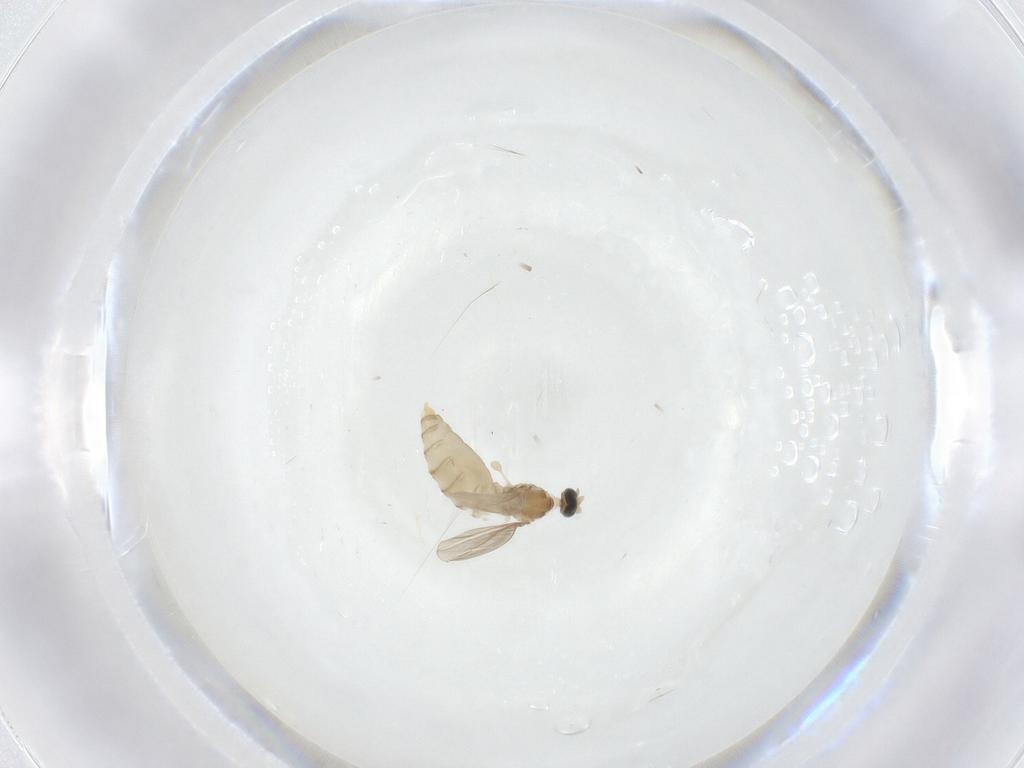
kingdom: Animalia
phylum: Arthropoda
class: Insecta
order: Diptera
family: Cecidomyiidae
